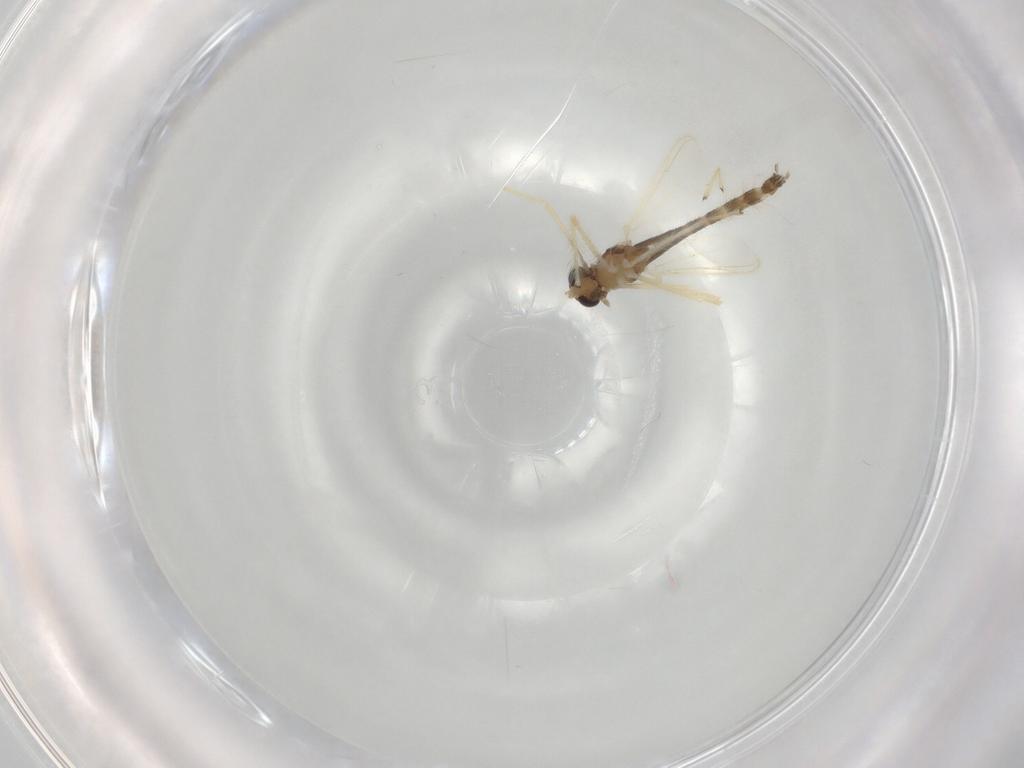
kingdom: Animalia
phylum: Arthropoda
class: Insecta
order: Diptera
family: Chironomidae
